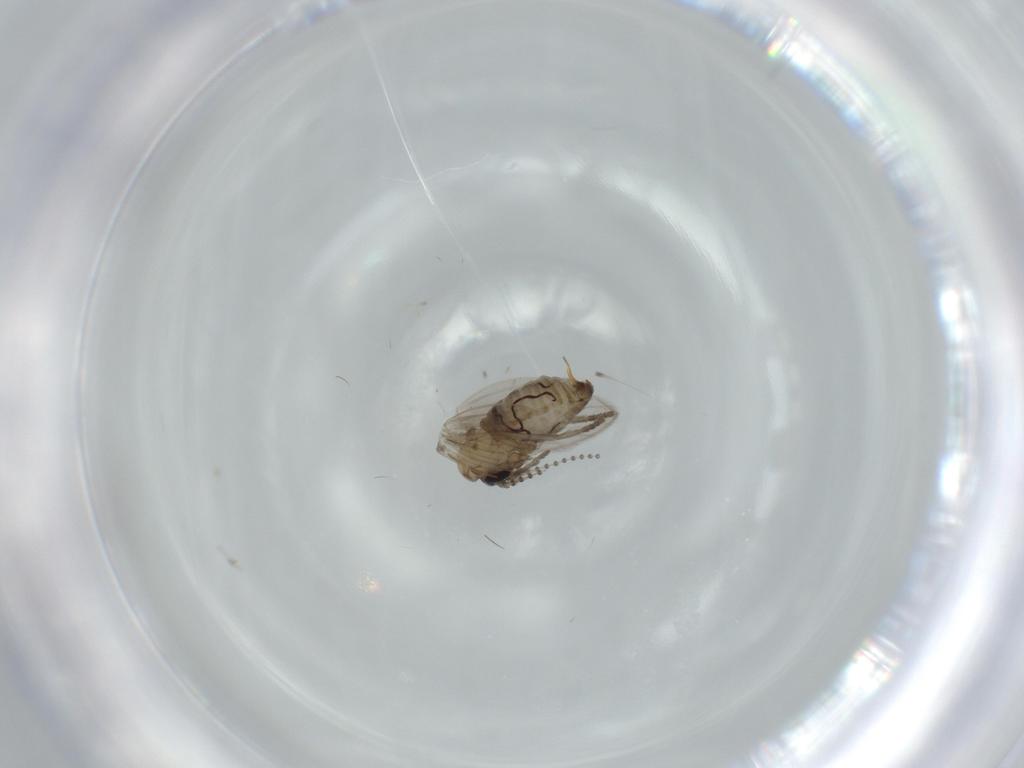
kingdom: Animalia
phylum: Arthropoda
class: Insecta
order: Diptera
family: Psychodidae
